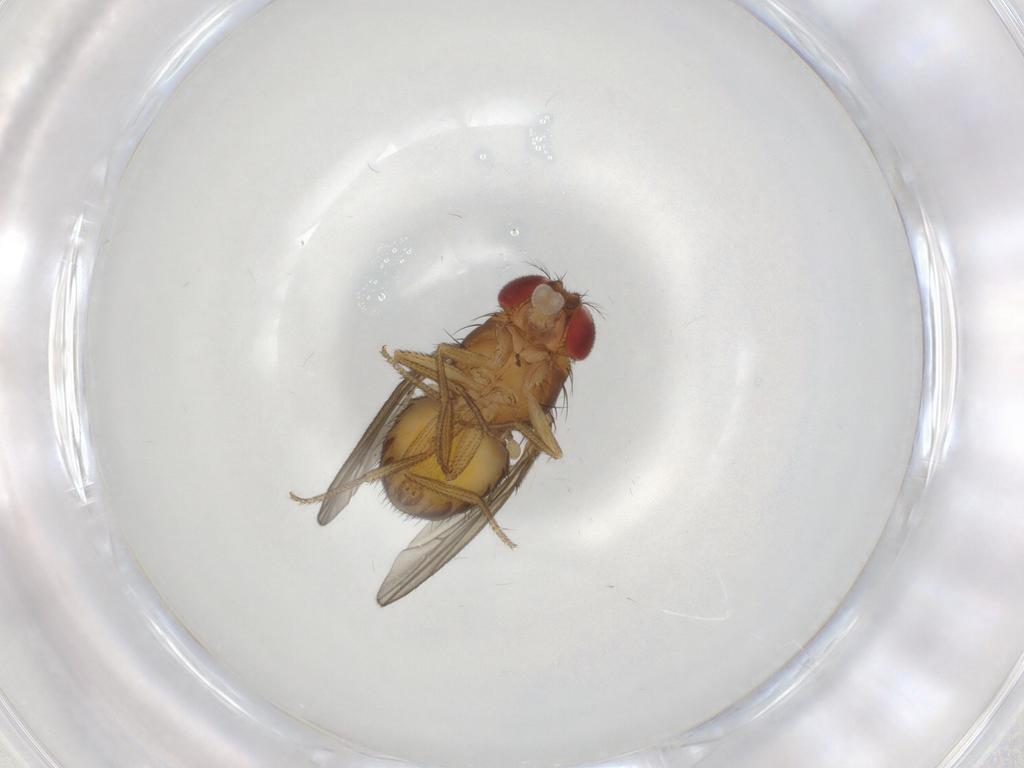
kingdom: Animalia
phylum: Arthropoda
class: Insecta
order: Diptera
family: Drosophilidae
